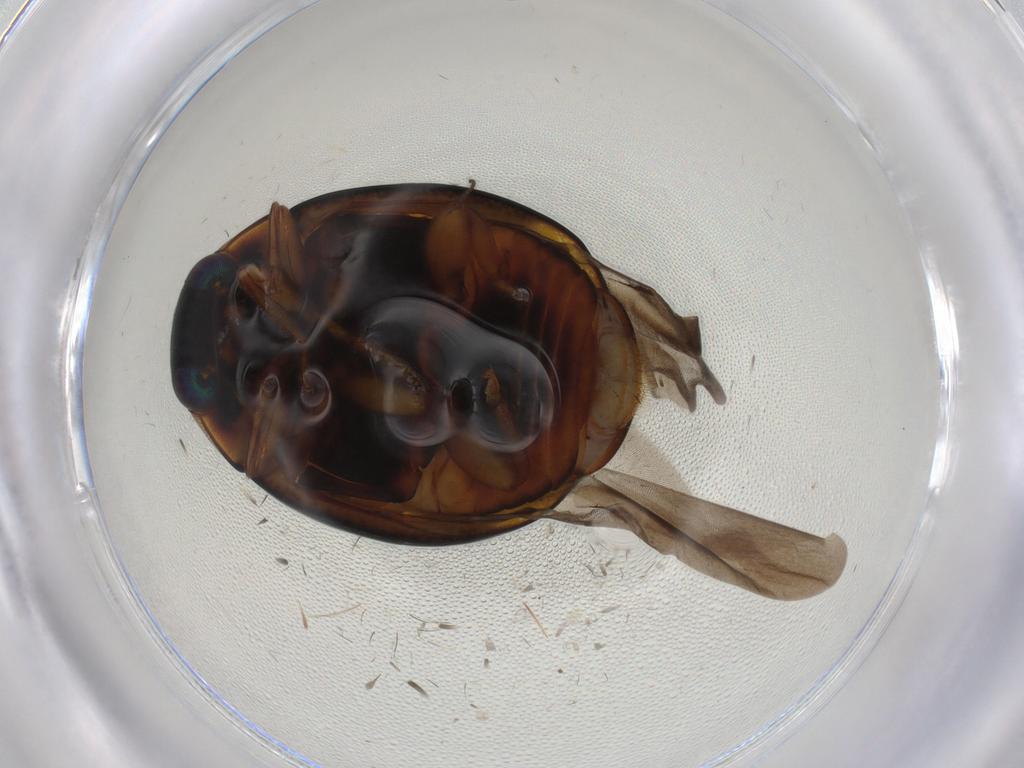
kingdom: Animalia
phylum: Arthropoda
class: Insecta
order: Coleoptera
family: Coccinellidae
